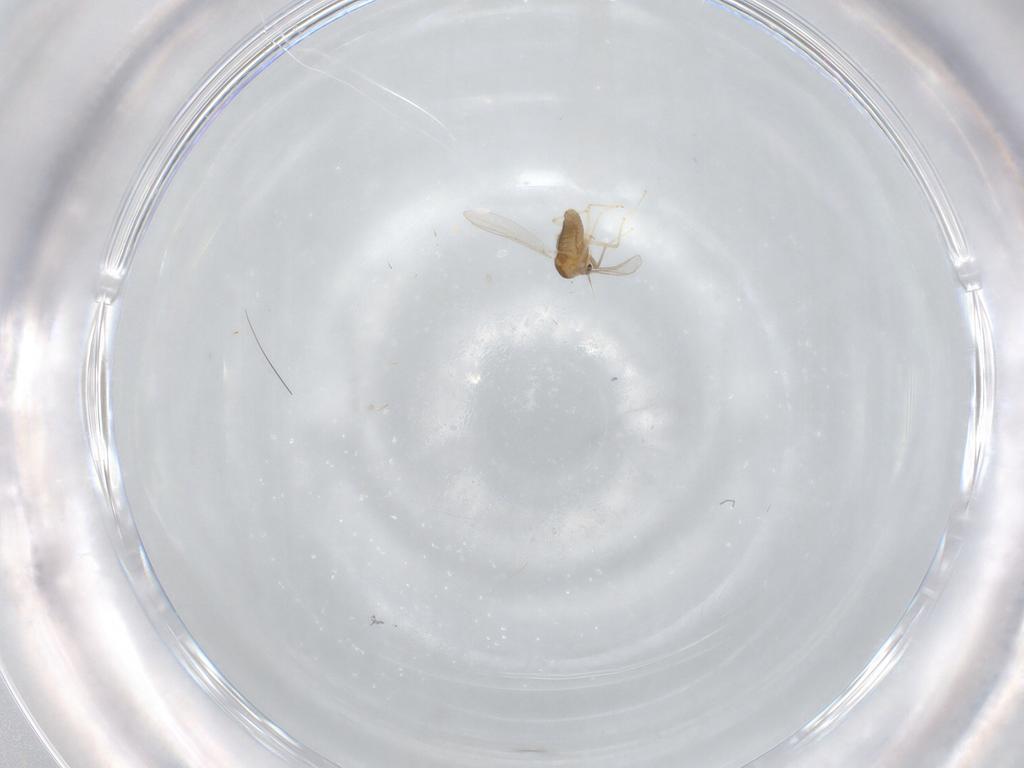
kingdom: Animalia
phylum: Arthropoda
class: Insecta
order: Diptera
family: Chironomidae
